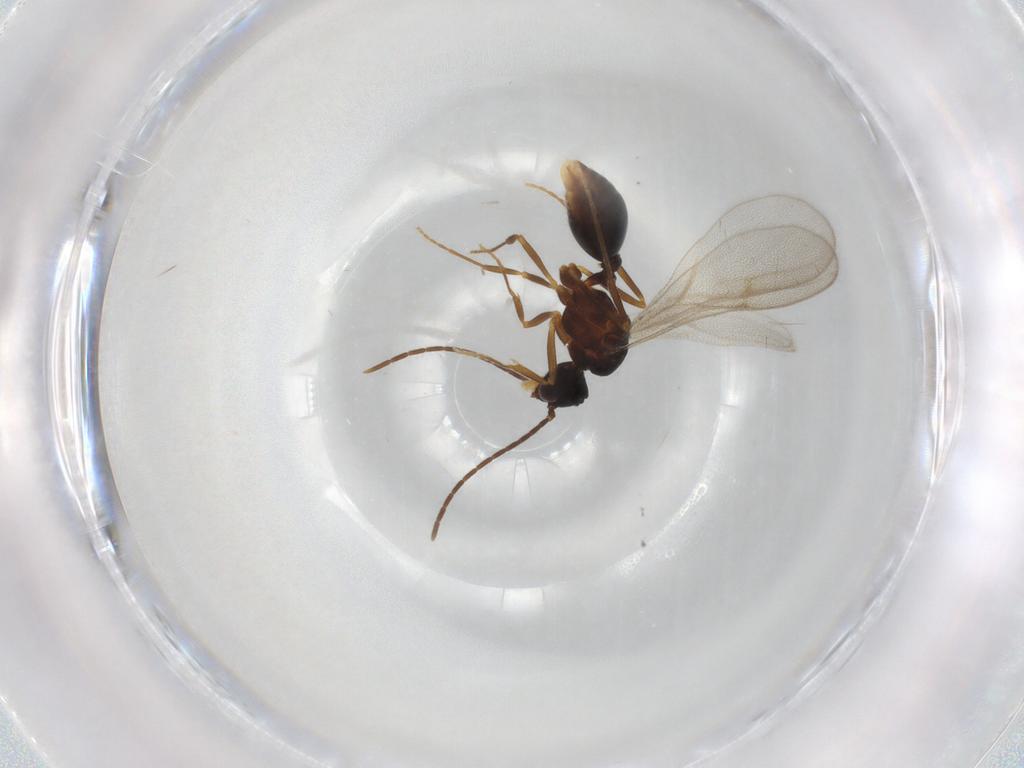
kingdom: Animalia
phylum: Arthropoda
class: Insecta
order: Hymenoptera
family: Formicidae
